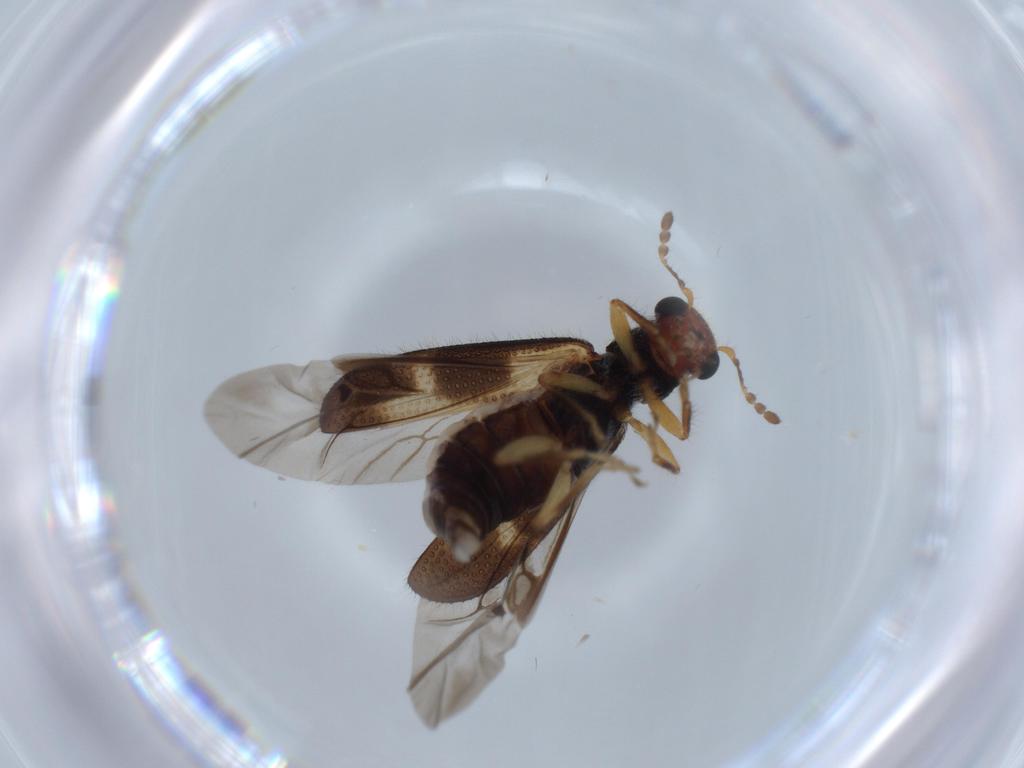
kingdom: Animalia
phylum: Arthropoda
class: Insecta
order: Coleoptera
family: Cleridae
